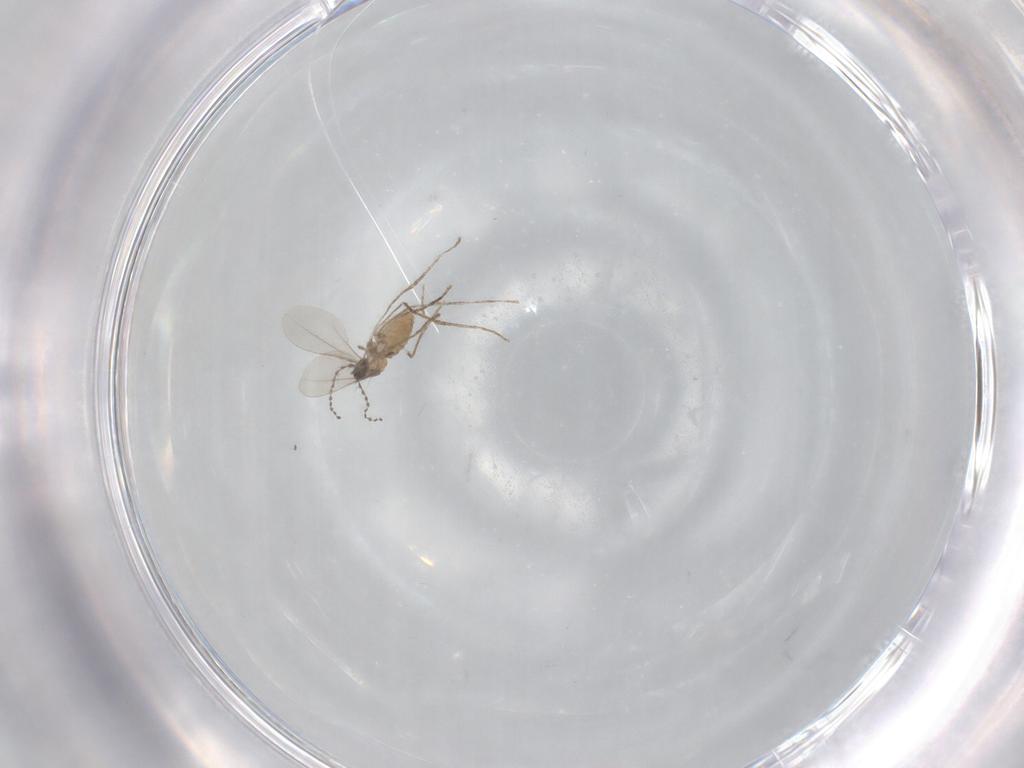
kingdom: Animalia
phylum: Arthropoda
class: Insecta
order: Diptera
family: Cecidomyiidae
